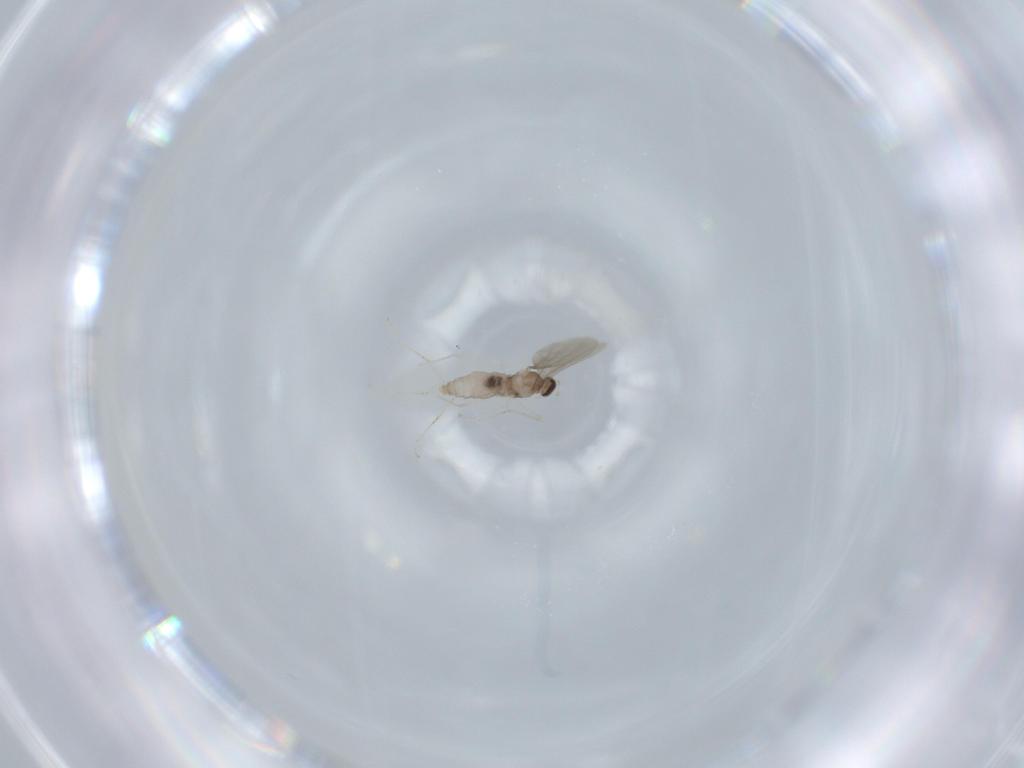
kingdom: Animalia
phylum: Arthropoda
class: Insecta
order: Diptera
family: Cecidomyiidae
